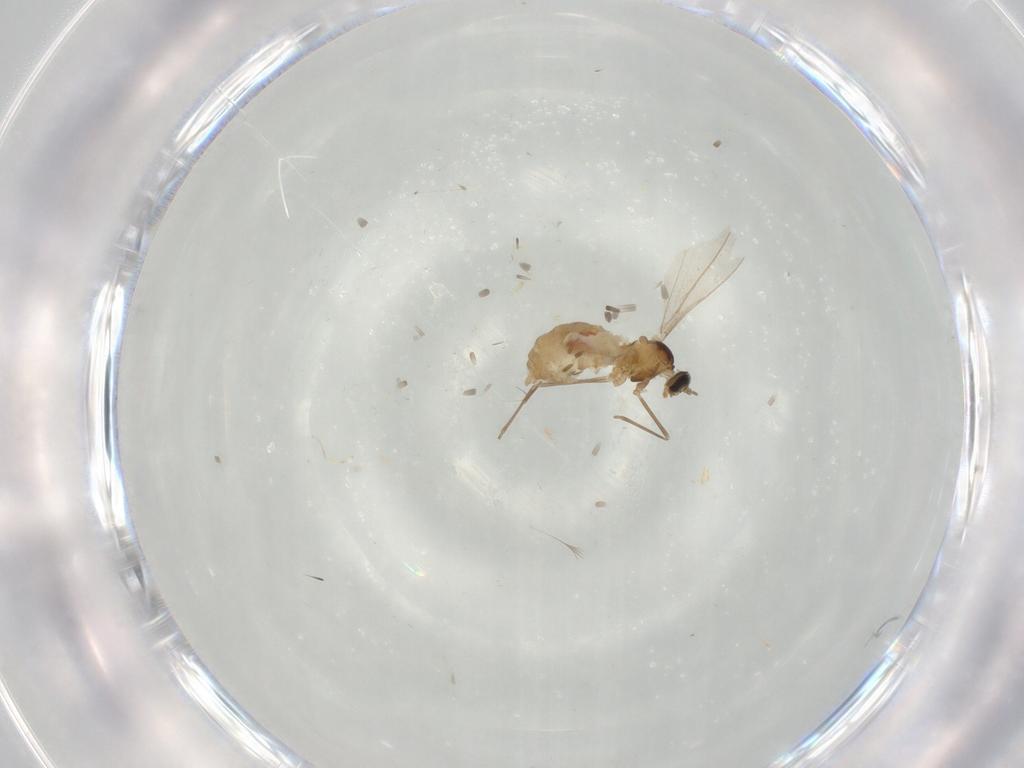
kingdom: Animalia
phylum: Arthropoda
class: Insecta
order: Diptera
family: Cecidomyiidae
